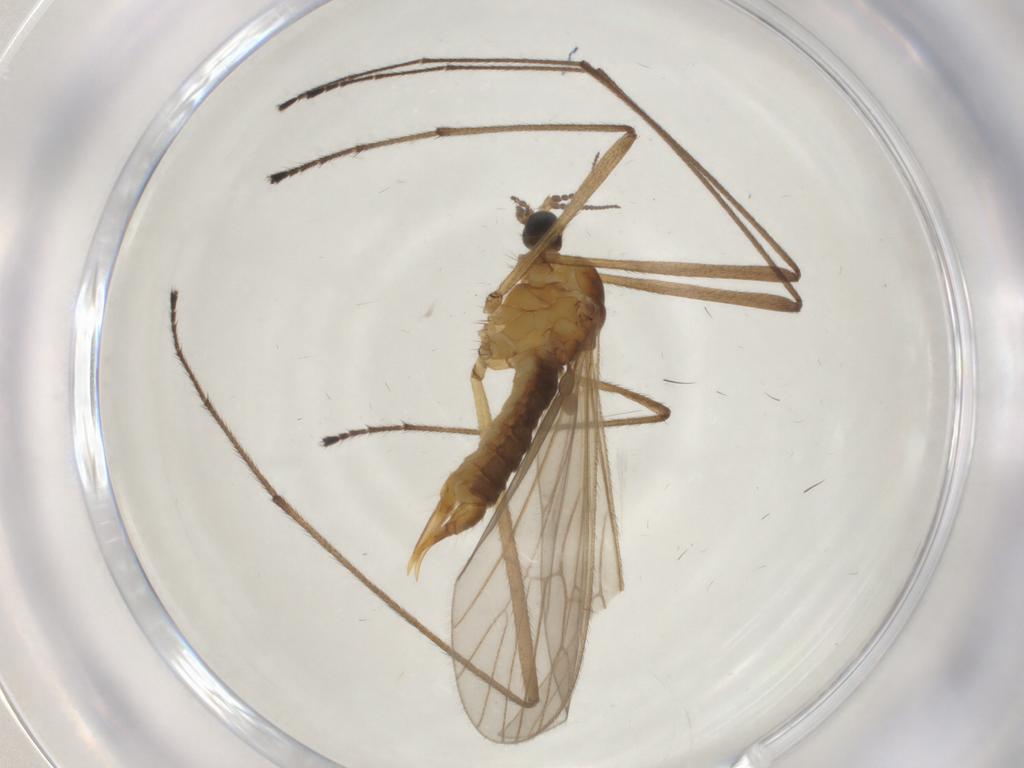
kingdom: Animalia
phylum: Arthropoda
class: Insecta
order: Diptera
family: Limoniidae
